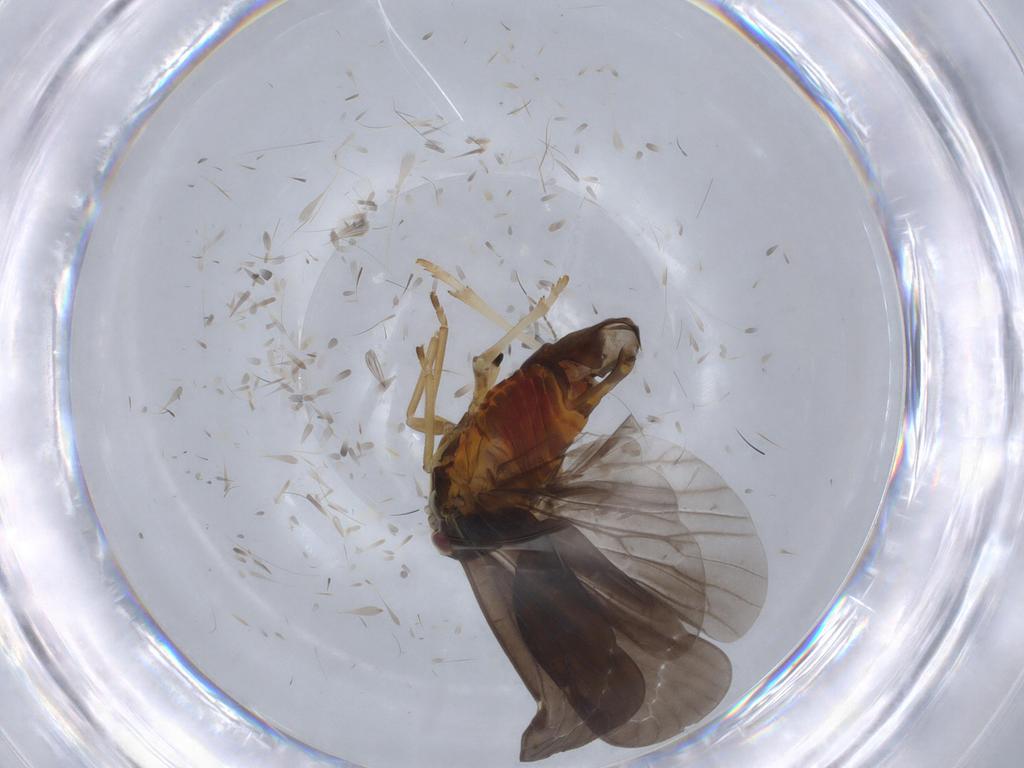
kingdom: Animalia
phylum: Arthropoda
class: Insecta
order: Hemiptera
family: Derbidae
